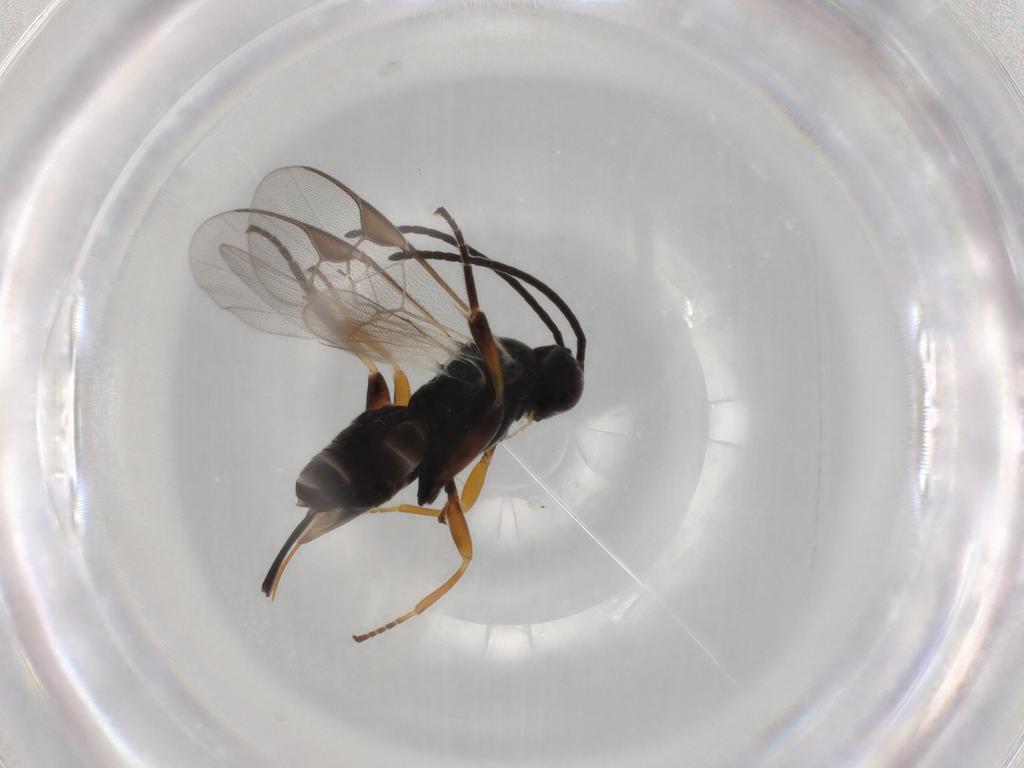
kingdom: Animalia
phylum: Arthropoda
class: Insecta
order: Hymenoptera
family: Braconidae
